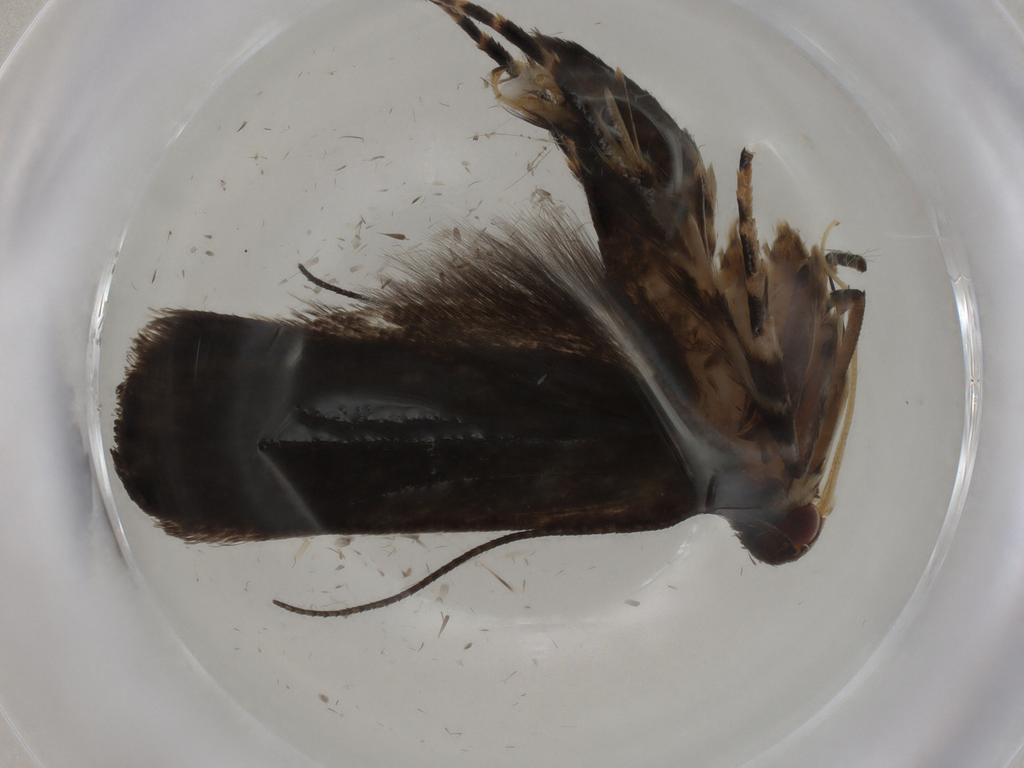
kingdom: Animalia
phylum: Arthropoda
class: Insecta
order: Lepidoptera
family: Crambidae
